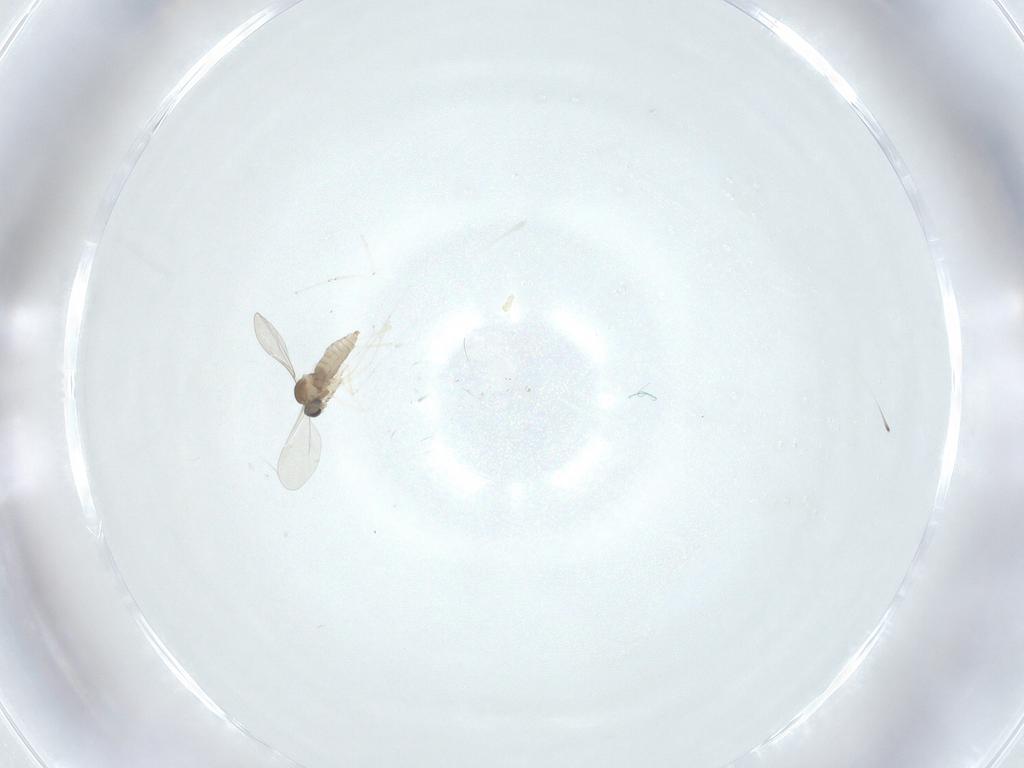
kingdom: Animalia
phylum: Arthropoda
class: Insecta
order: Diptera
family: Cecidomyiidae
